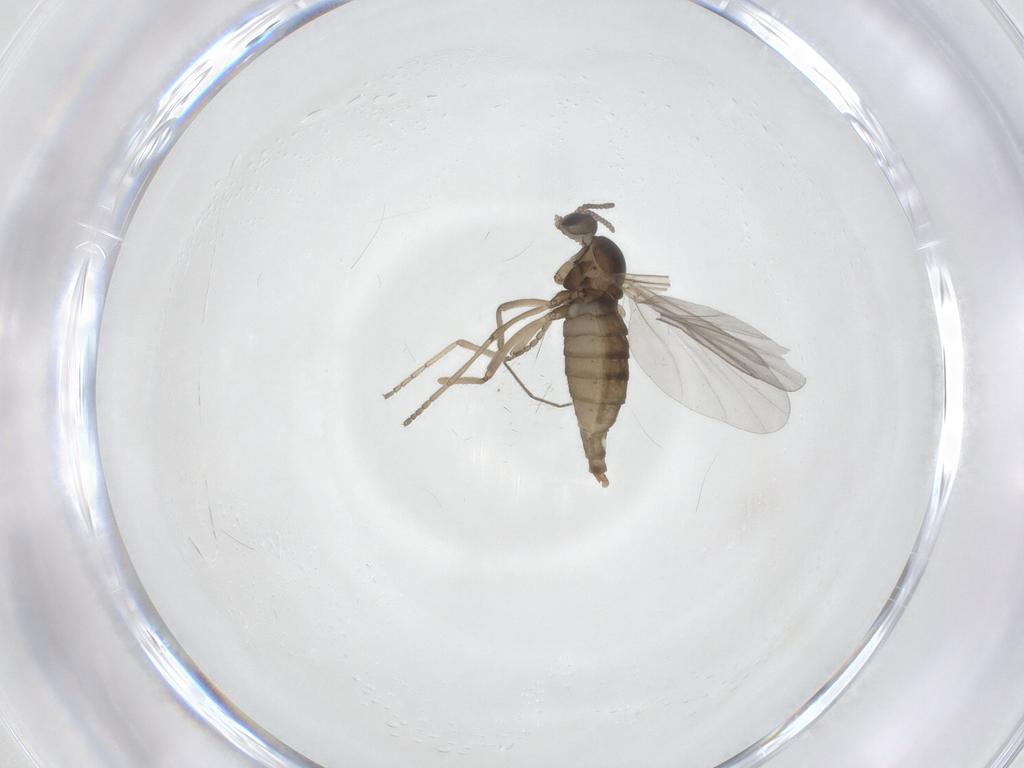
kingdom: Animalia
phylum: Arthropoda
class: Insecta
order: Diptera
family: Cecidomyiidae
